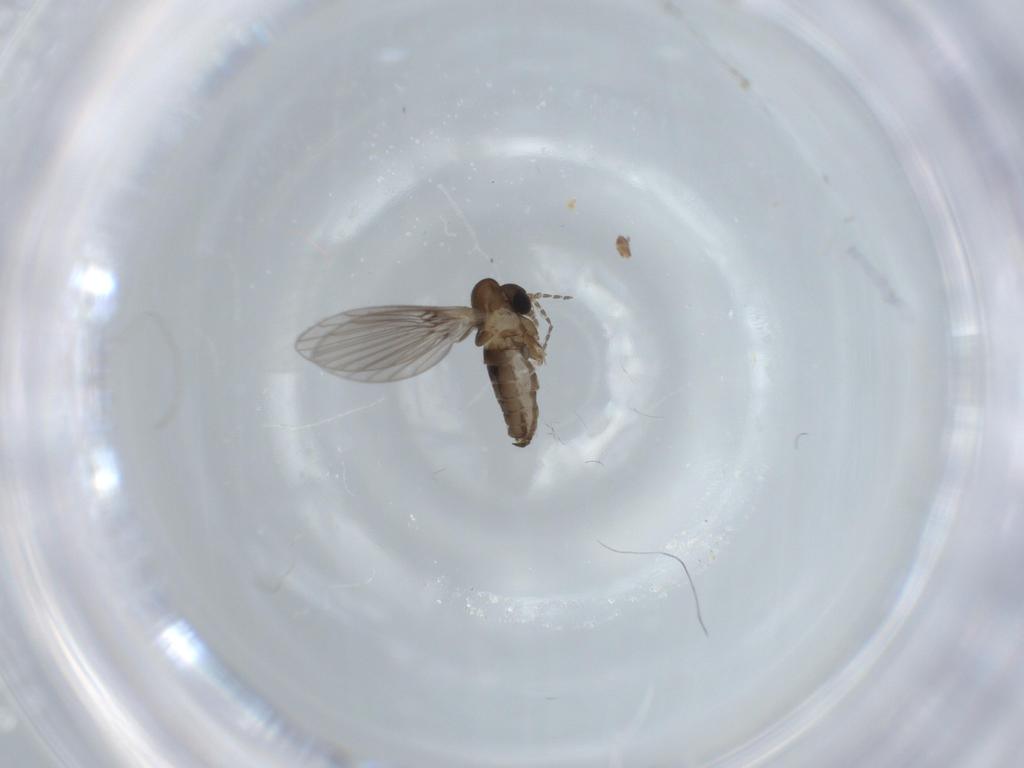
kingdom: Animalia
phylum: Arthropoda
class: Insecta
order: Diptera
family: Psychodidae
